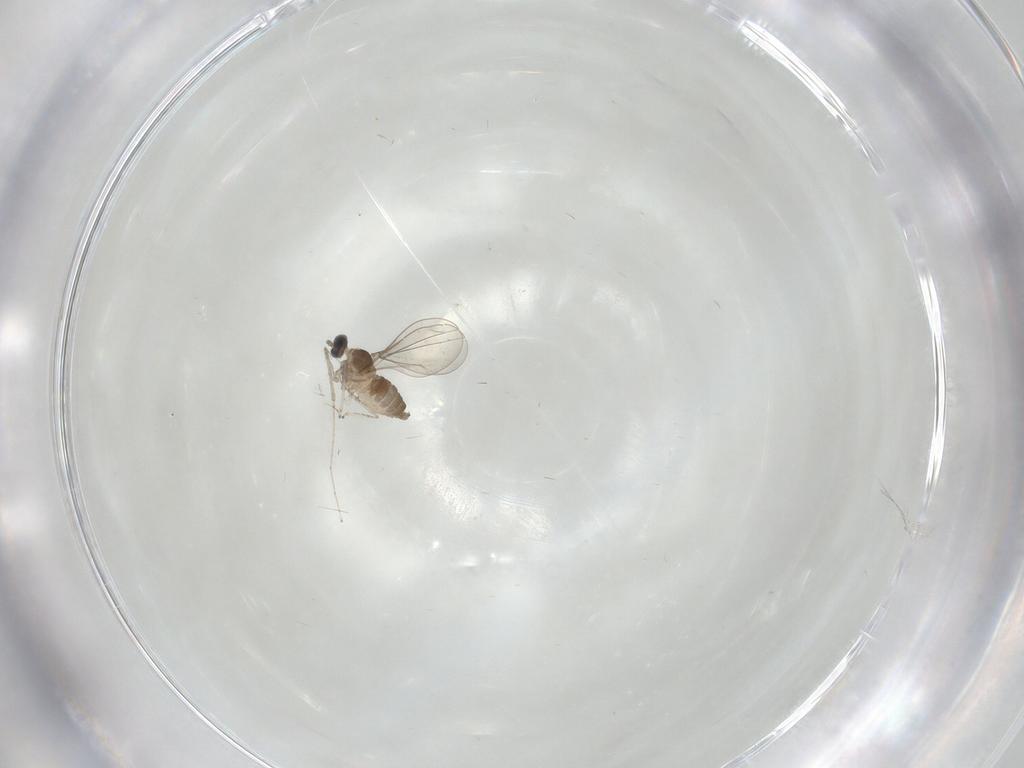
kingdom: Animalia
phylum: Arthropoda
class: Insecta
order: Diptera
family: Cecidomyiidae
